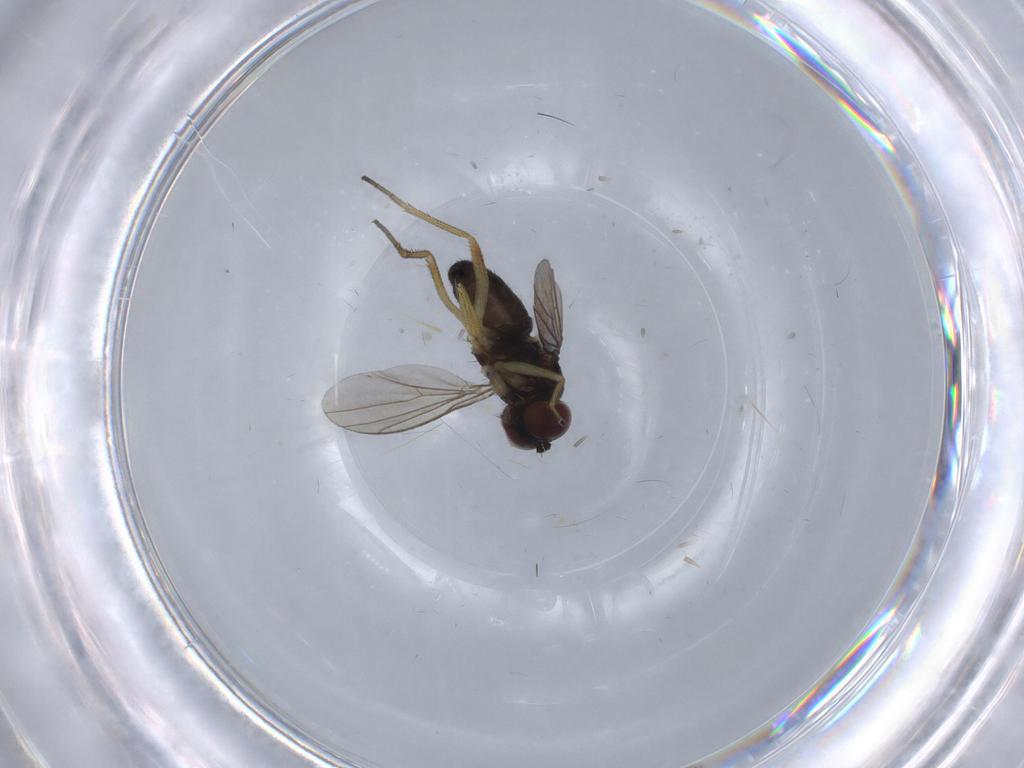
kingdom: Animalia
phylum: Arthropoda
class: Insecta
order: Diptera
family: Dolichopodidae
